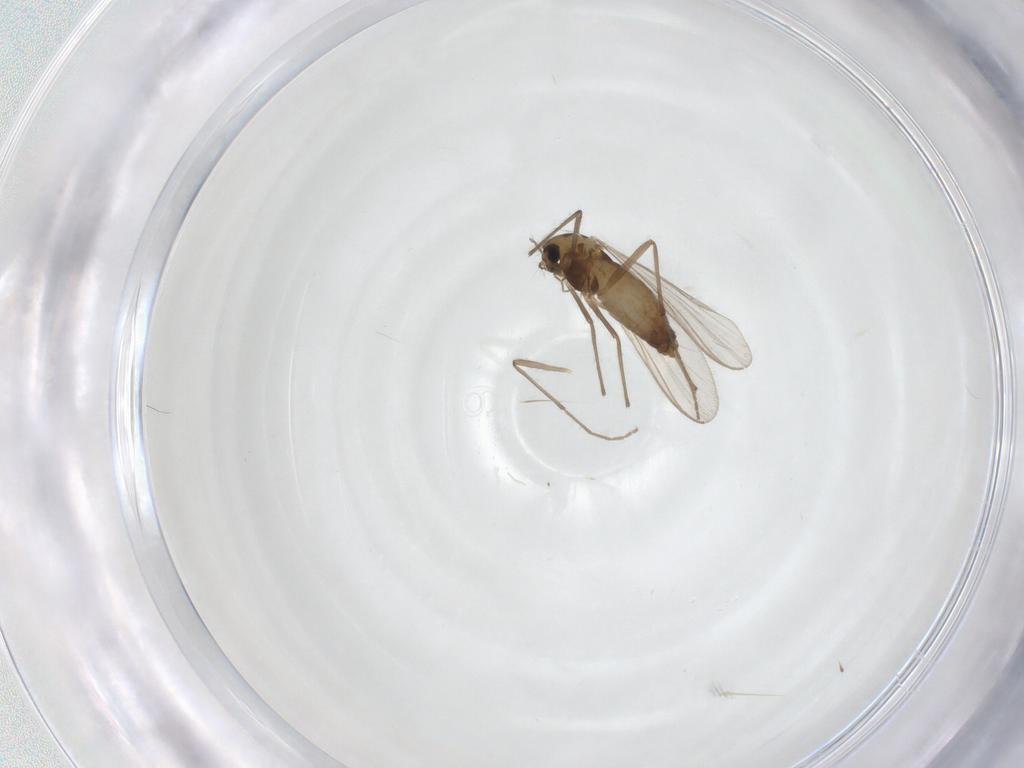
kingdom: Animalia
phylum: Arthropoda
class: Insecta
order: Diptera
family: Chironomidae
